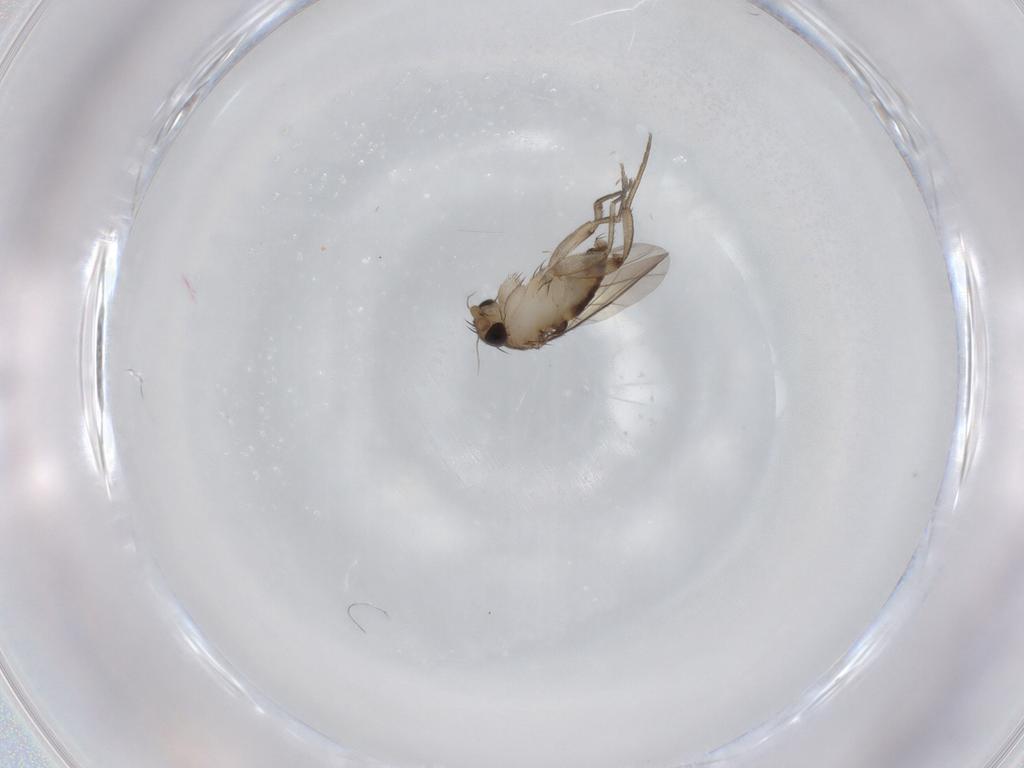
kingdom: Animalia
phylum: Arthropoda
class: Insecta
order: Diptera
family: Phoridae
